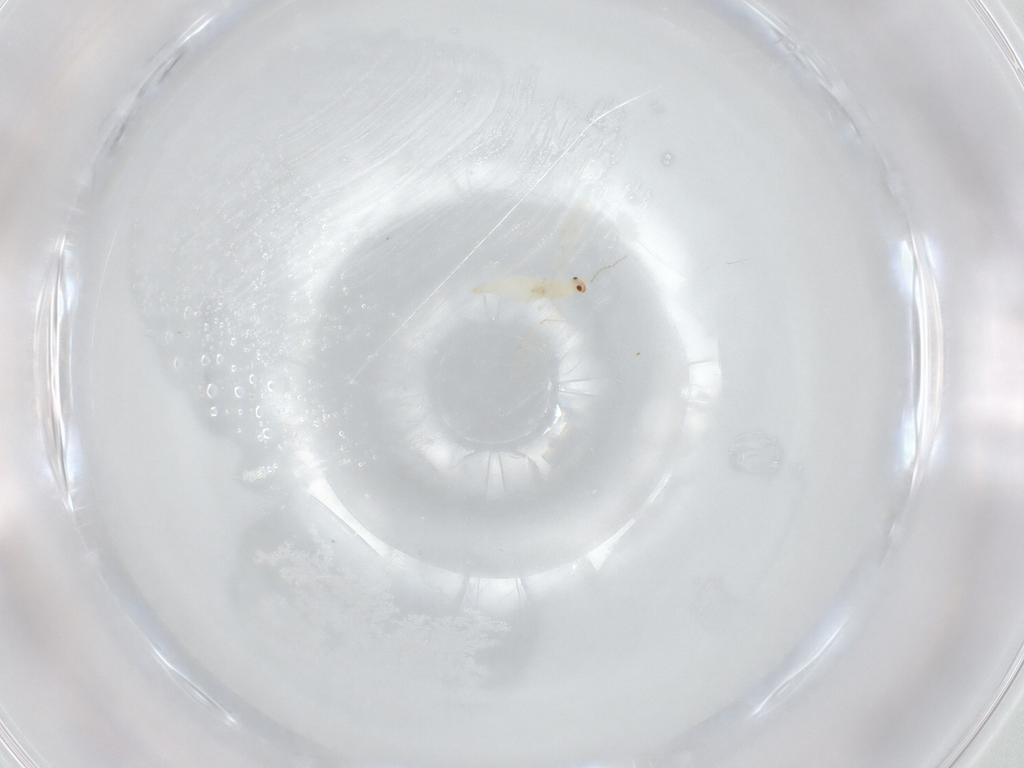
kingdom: Animalia
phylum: Arthropoda
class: Insecta
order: Diptera
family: Cecidomyiidae
